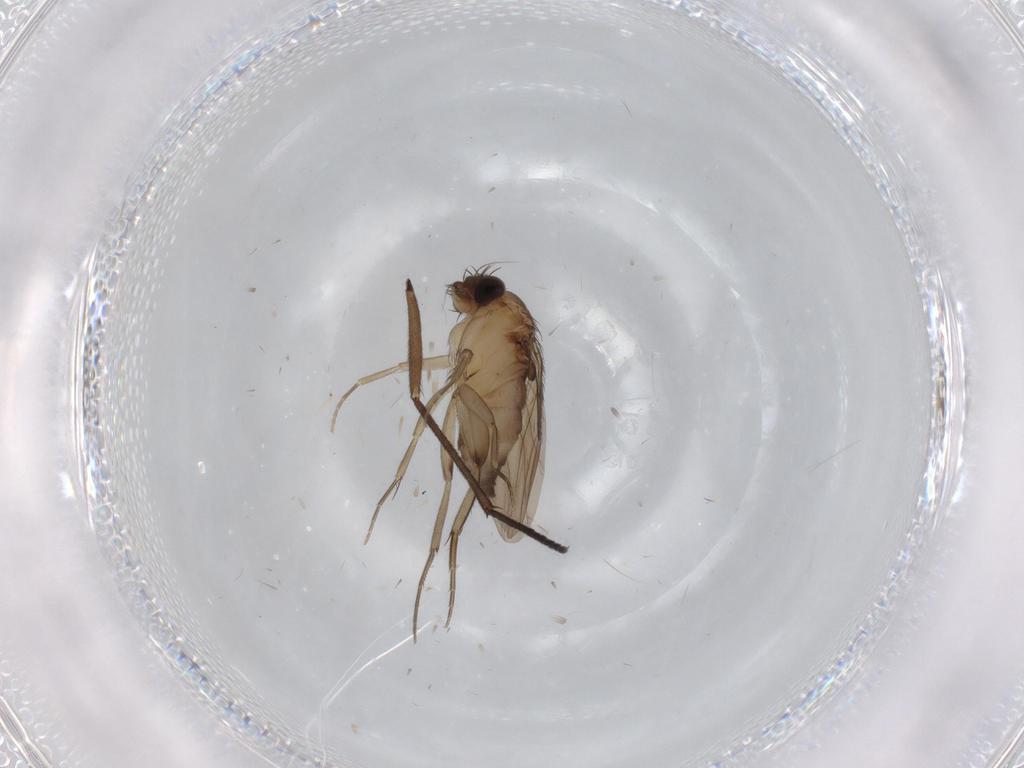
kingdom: Animalia
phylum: Arthropoda
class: Insecta
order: Diptera
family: Phoridae
